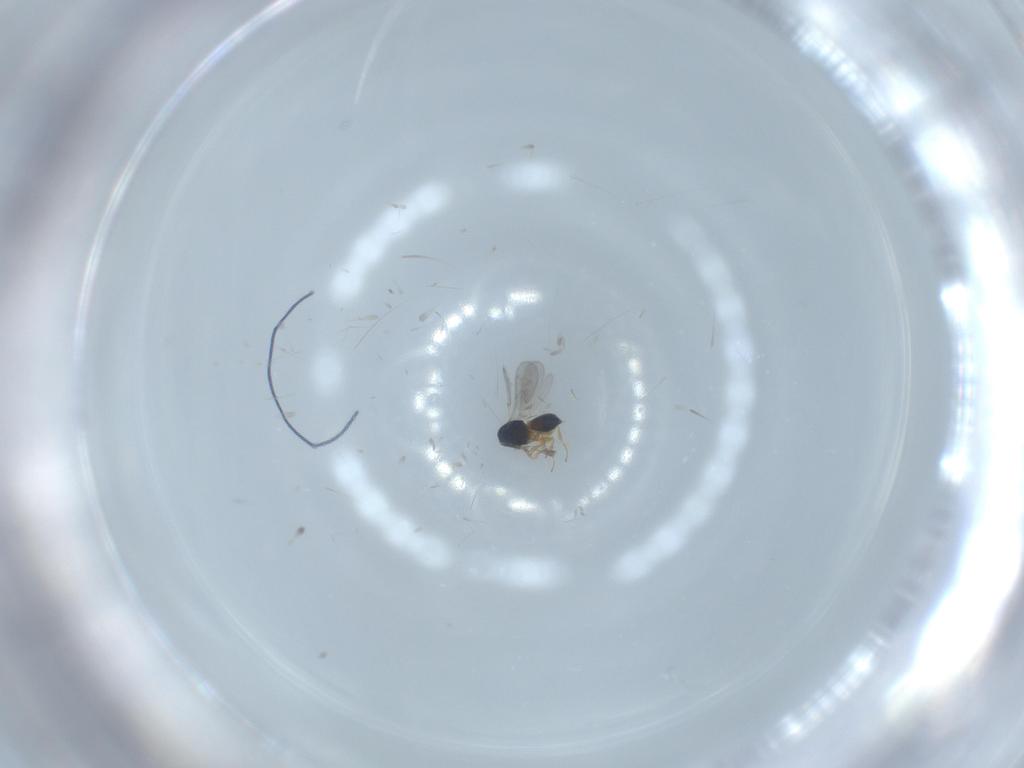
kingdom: Animalia
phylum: Arthropoda
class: Insecta
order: Hymenoptera
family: Scelionidae
